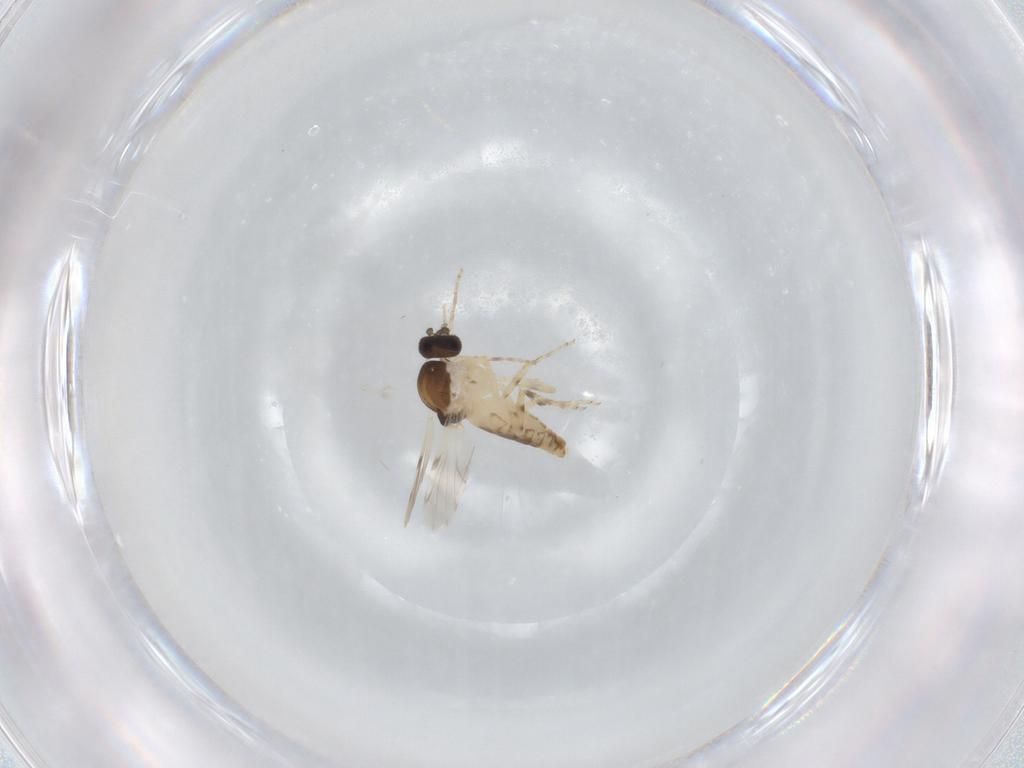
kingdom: Animalia
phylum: Arthropoda
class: Insecta
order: Diptera
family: Ceratopogonidae
